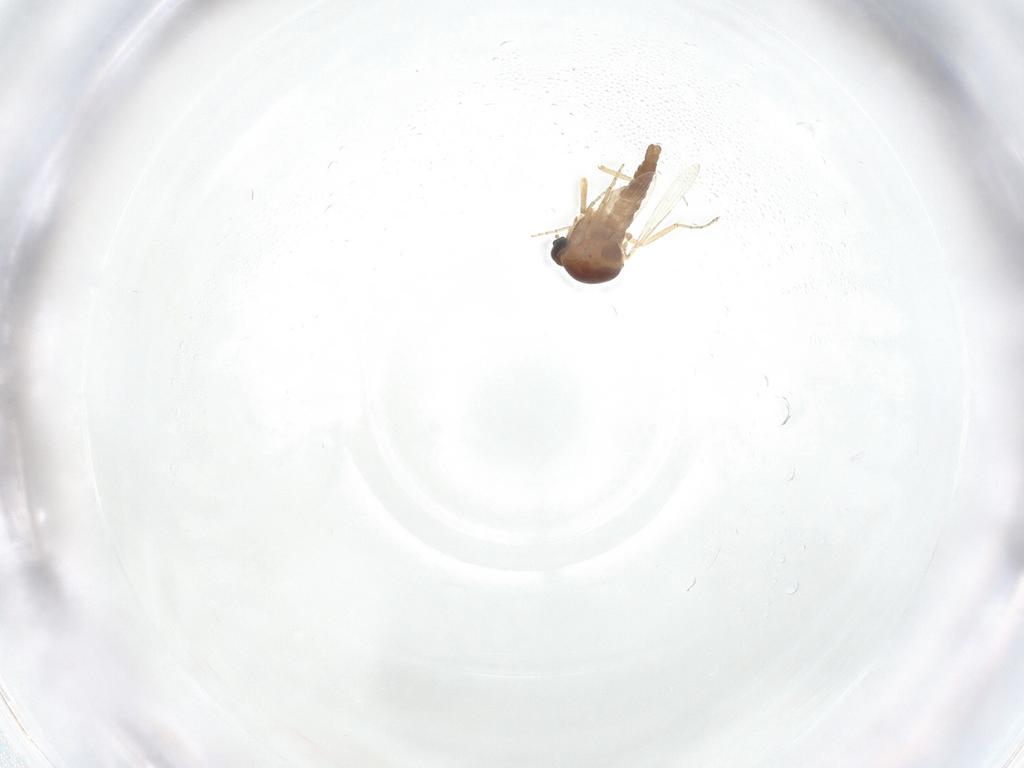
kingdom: Animalia
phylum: Arthropoda
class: Insecta
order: Diptera
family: Ceratopogonidae
